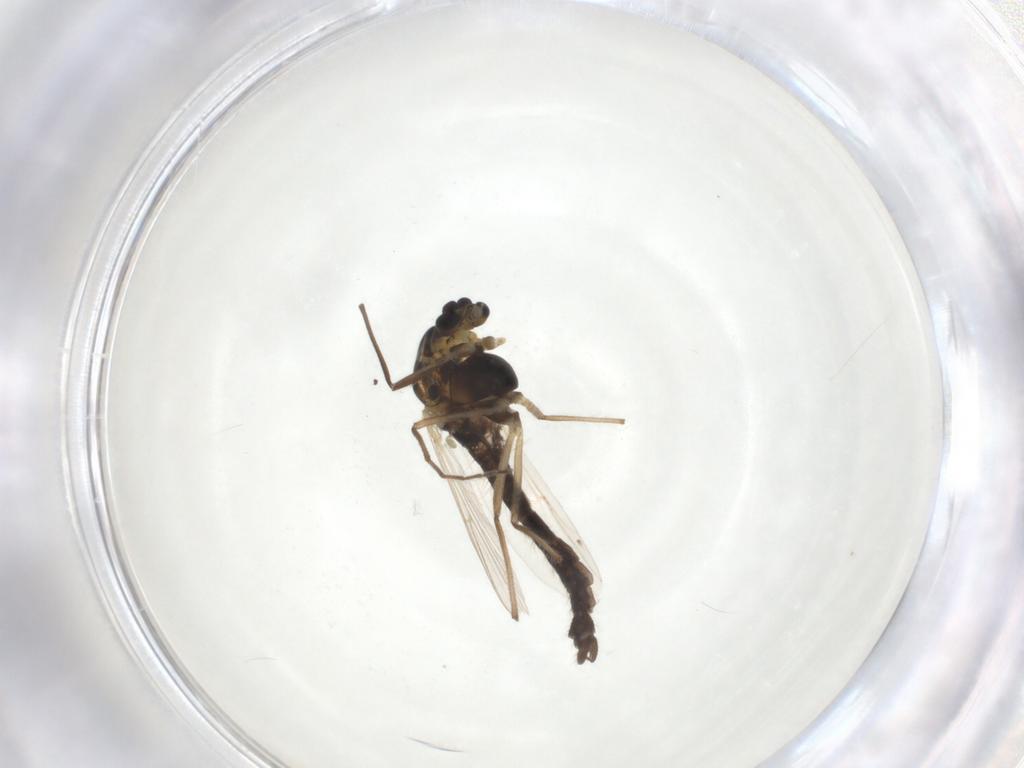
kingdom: Animalia
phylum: Arthropoda
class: Insecta
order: Diptera
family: Chironomidae
